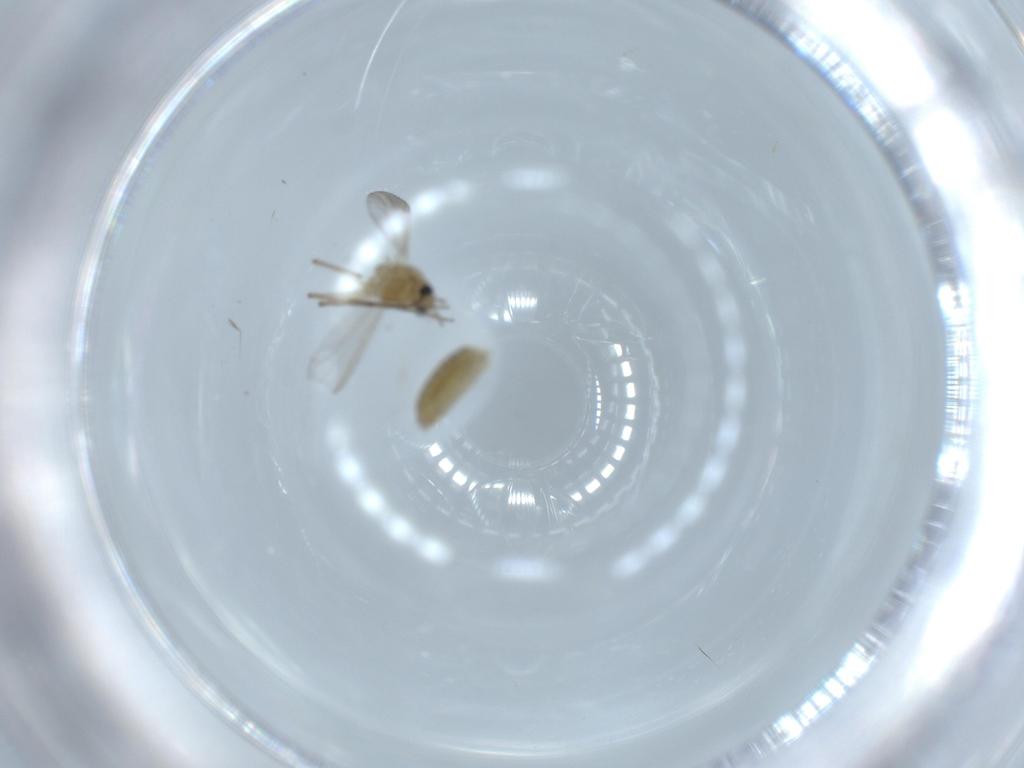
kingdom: Animalia
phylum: Arthropoda
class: Insecta
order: Diptera
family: Chironomidae
